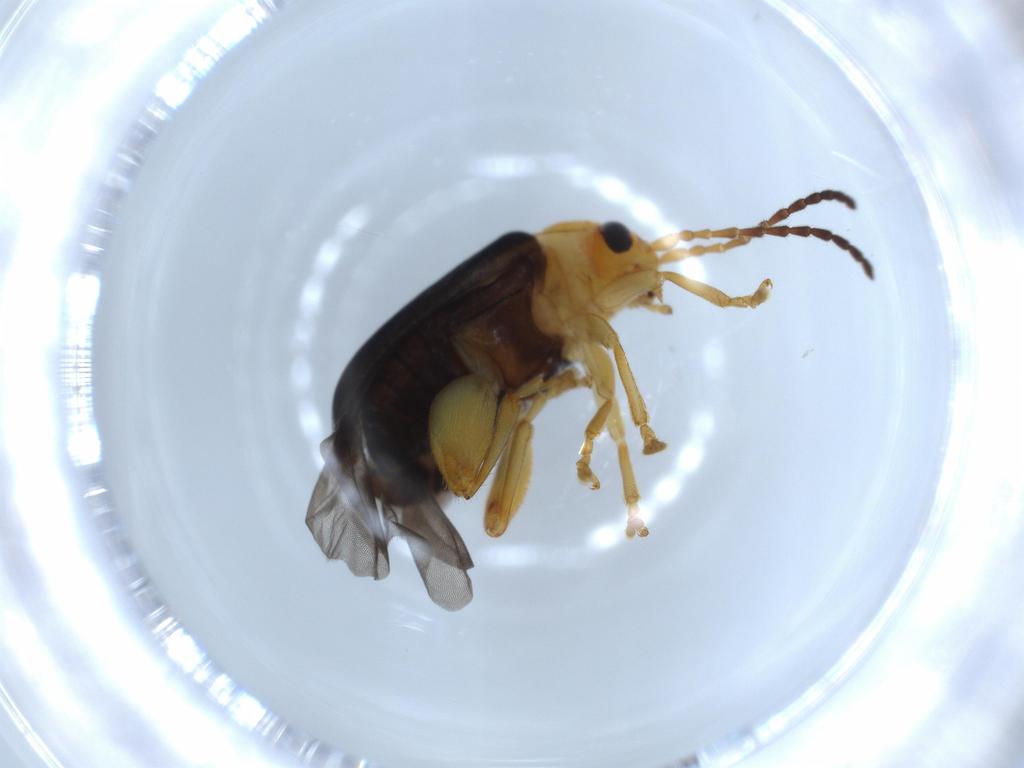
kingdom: Animalia
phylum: Arthropoda
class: Insecta
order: Coleoptera
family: Chrysomelidae
